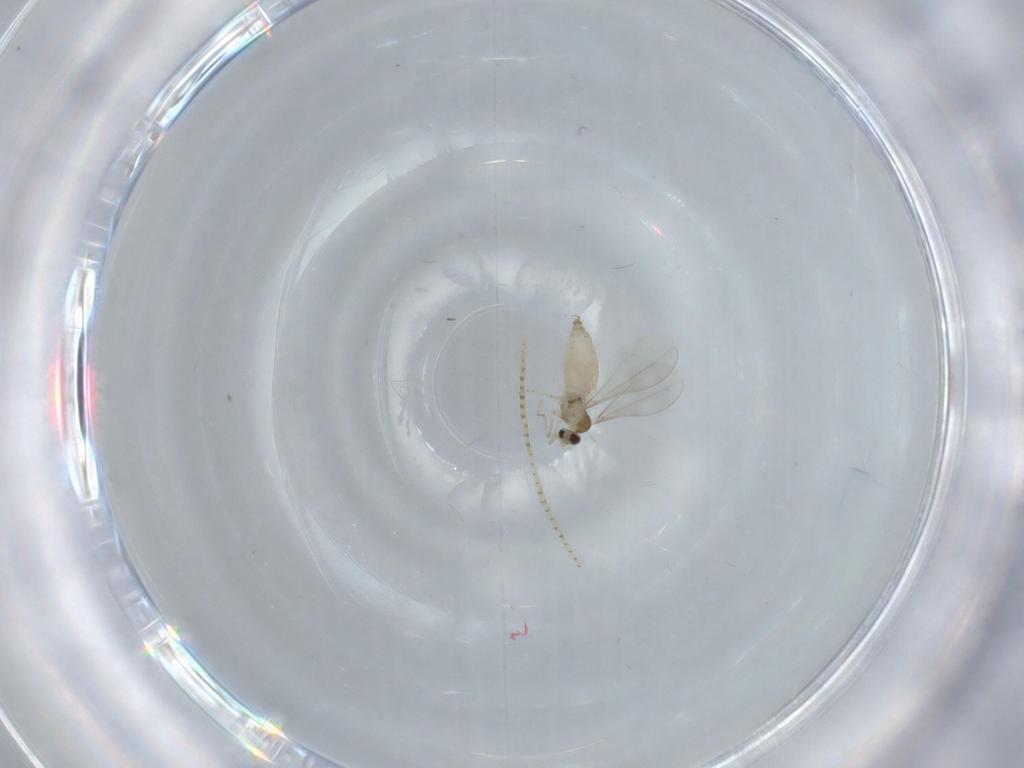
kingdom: Animalia
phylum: Arthropoda
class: Insecta
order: Diptera
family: Cecidomyiidae
